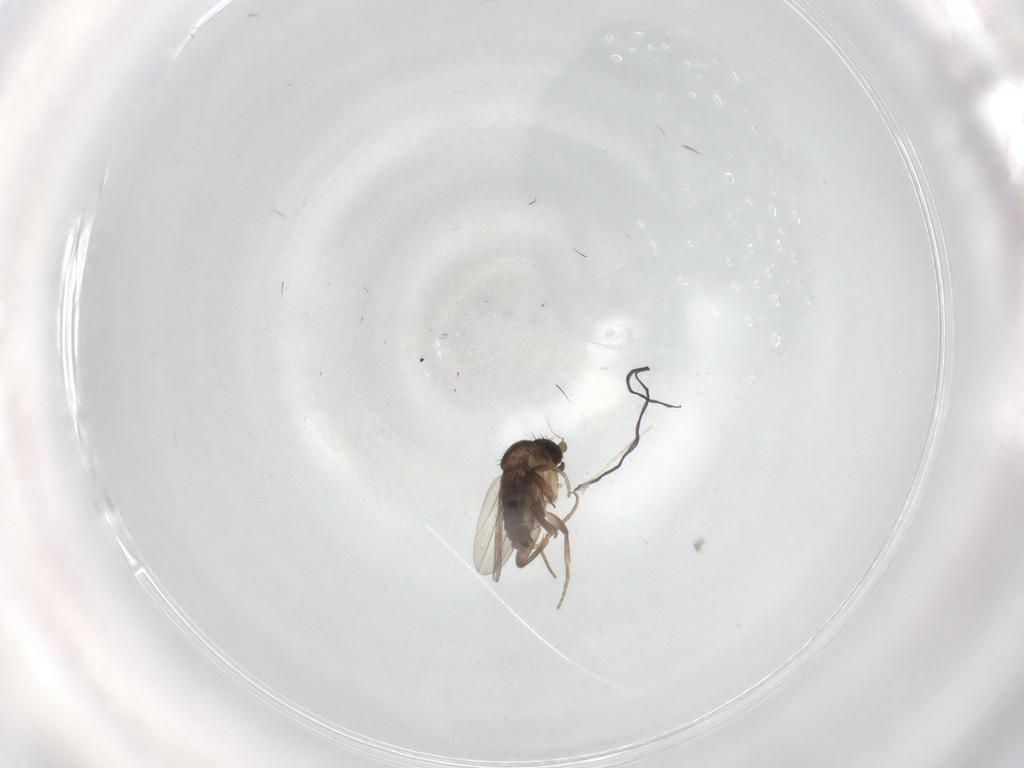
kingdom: Animalia
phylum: Arthropoda
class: Insecta
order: Diptera
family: Phoridae
